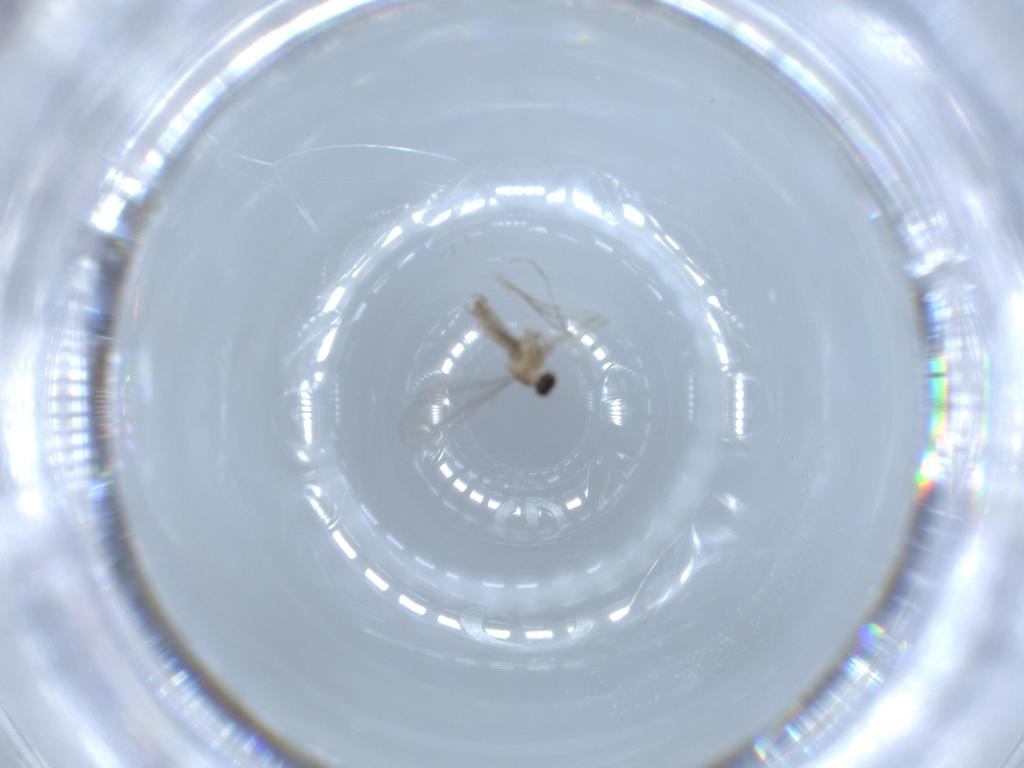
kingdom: Animalia
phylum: Arthropoda
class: Insecta
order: Diptera
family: Cecidomyiidae
